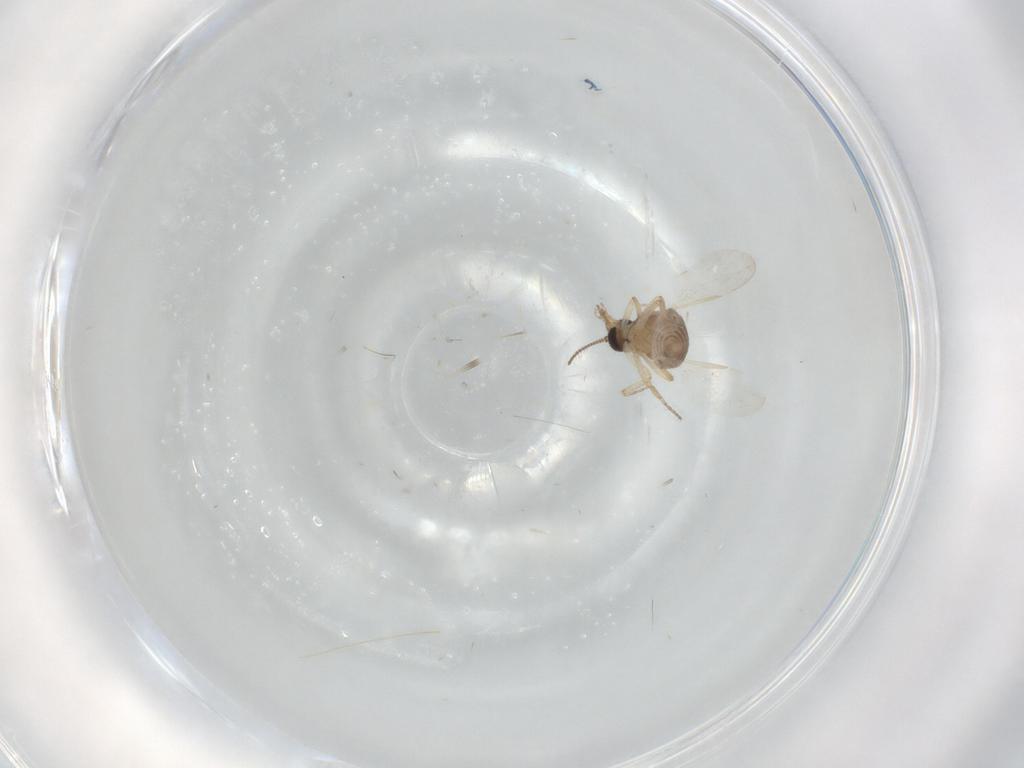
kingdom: Animalia
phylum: Arthropoda
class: Insecta
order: Diptera
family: Ceratopogonidae
